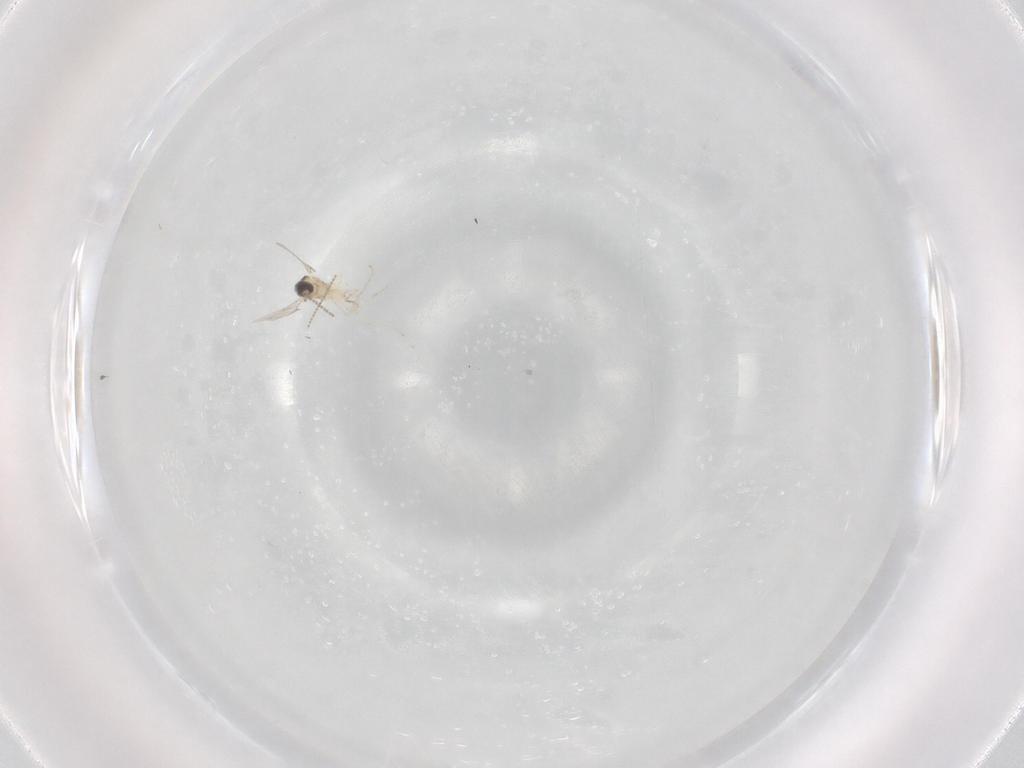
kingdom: Animalia
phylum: Arthropoda
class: Insecta
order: Diptera
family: Cecidomyiidae
